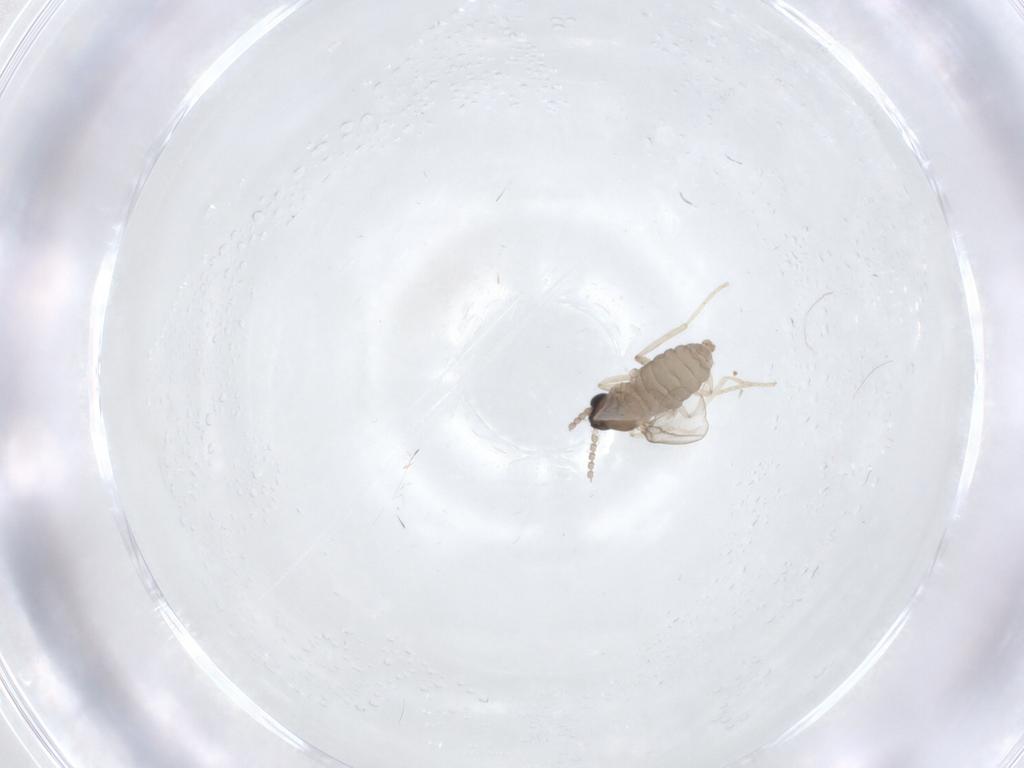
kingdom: Animalia
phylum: Arthropoda
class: Insecta
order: Diptera
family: Cecidomyiidae
